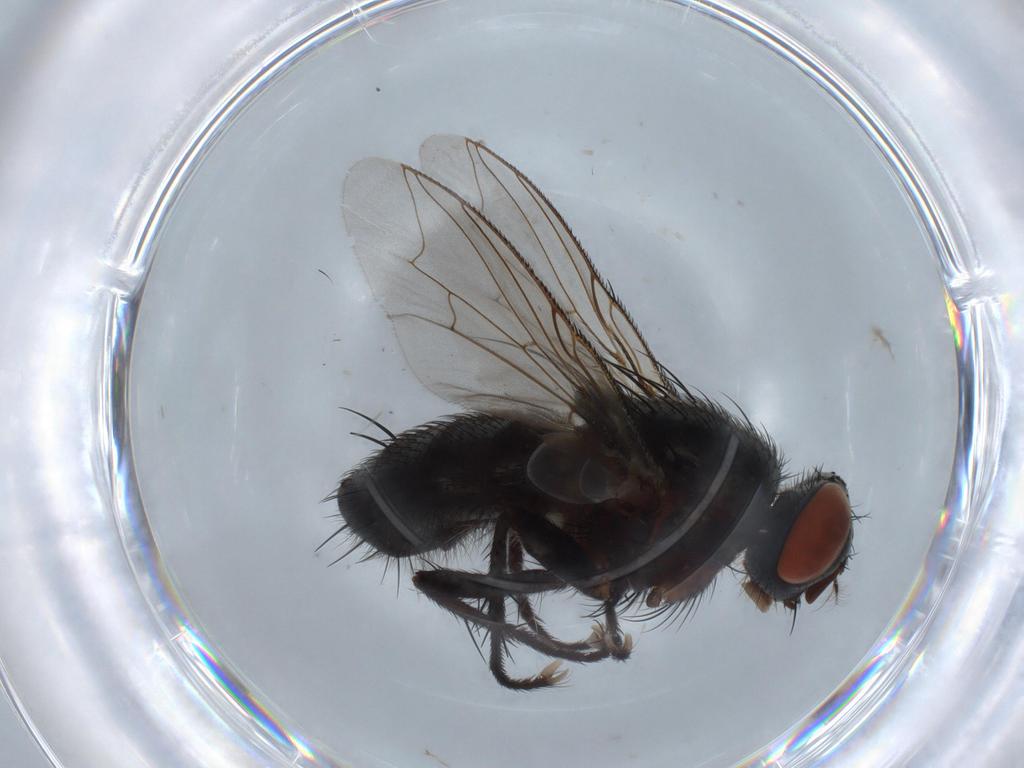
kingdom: Animalia
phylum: Arthropoda
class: Insecta
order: Diptera
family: Sarcophagidae
